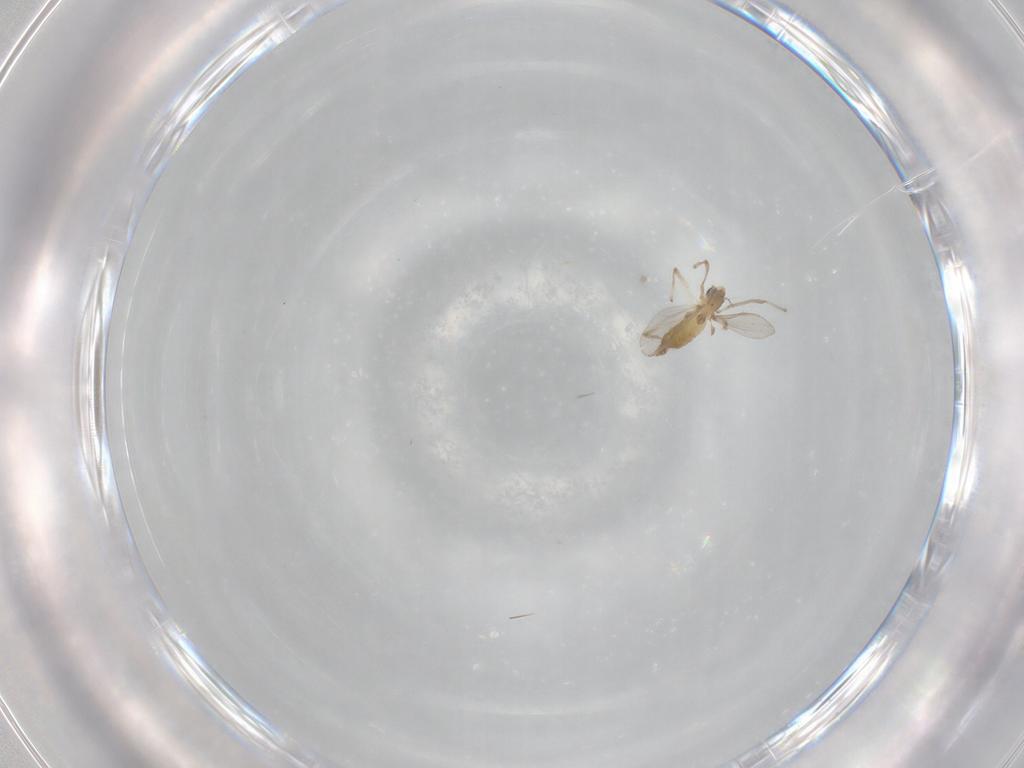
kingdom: Animalia
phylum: Arthropoda
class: Insecta
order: Diptera
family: Chironomidae
